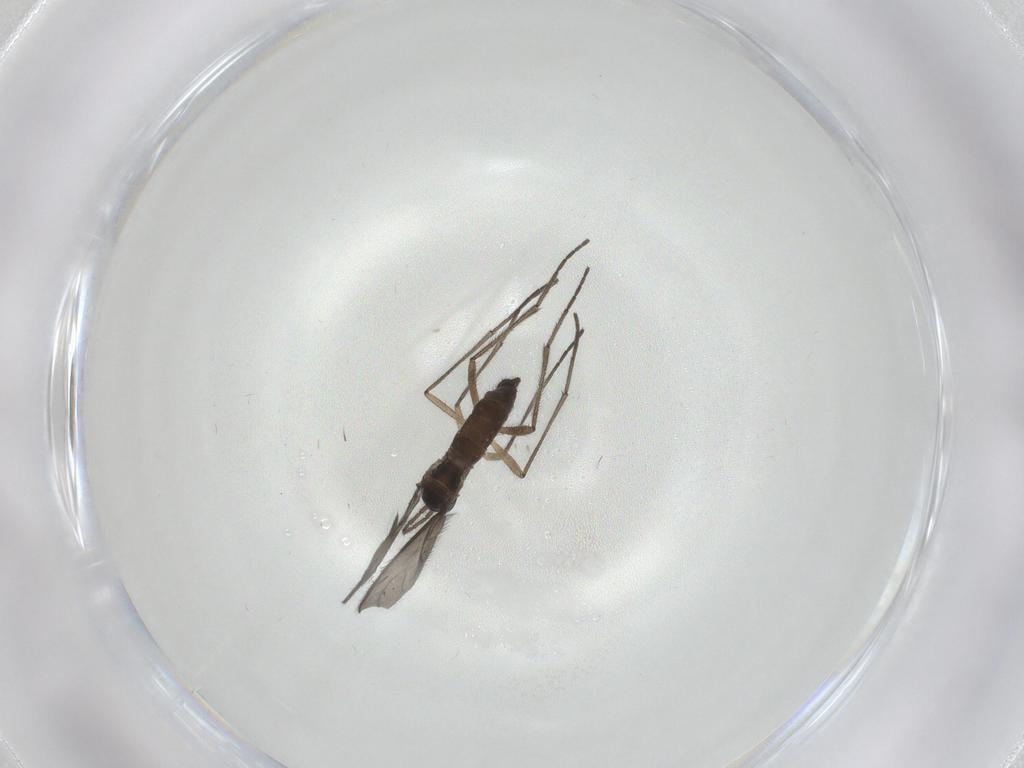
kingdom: Animalia
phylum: Arthropoda
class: Insecta
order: Diptera
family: Sciaridae
